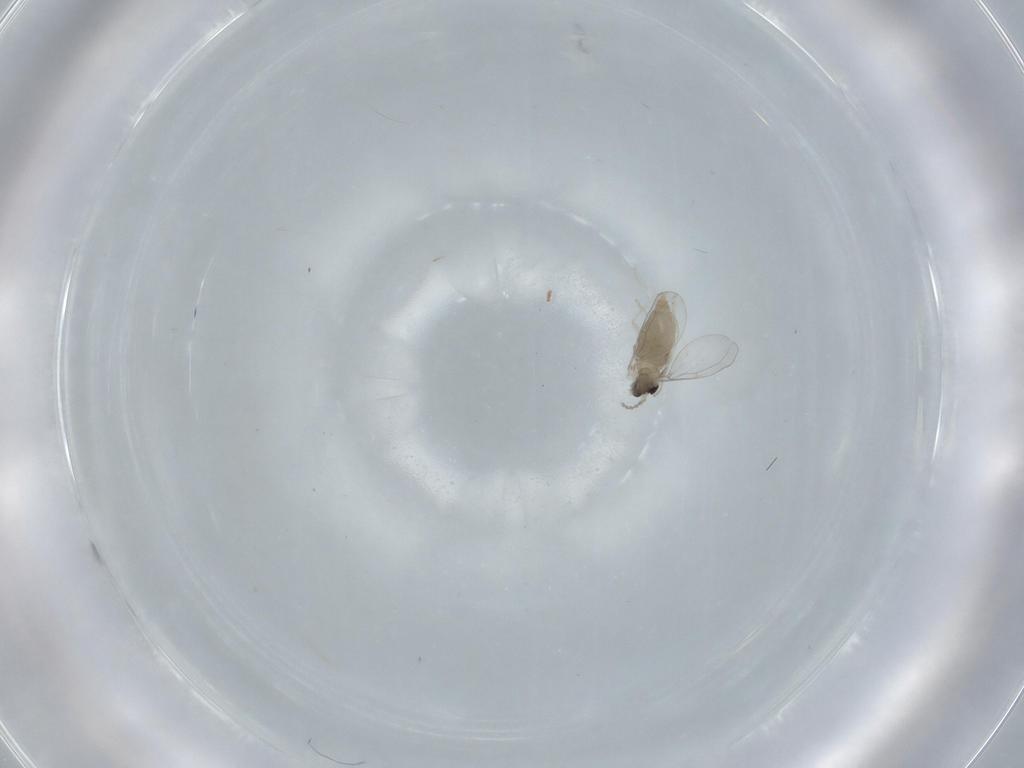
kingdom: Animalia
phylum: Arthropoda
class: Insecta
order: Diptera
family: Cecidomyiidae
